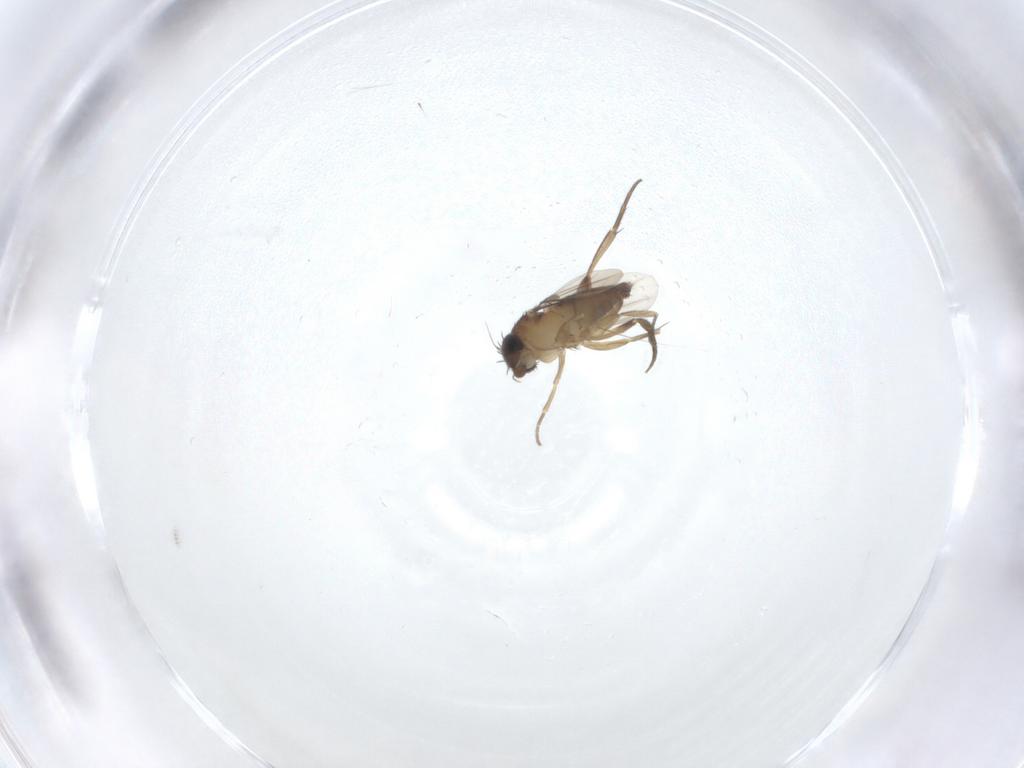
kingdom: Animalia
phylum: Arthropoda
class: Insecta
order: Diptera
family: Phoridae
